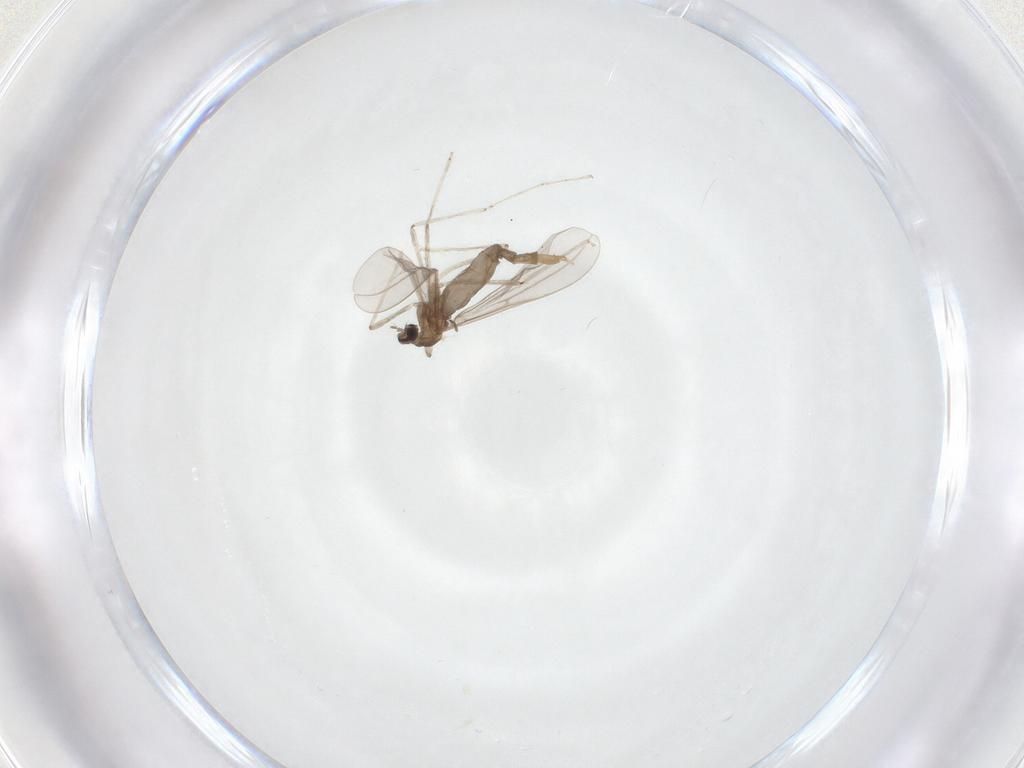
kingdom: Animalia
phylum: Arthropoda
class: Insecta
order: Diptera
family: Cecidomyiidae
